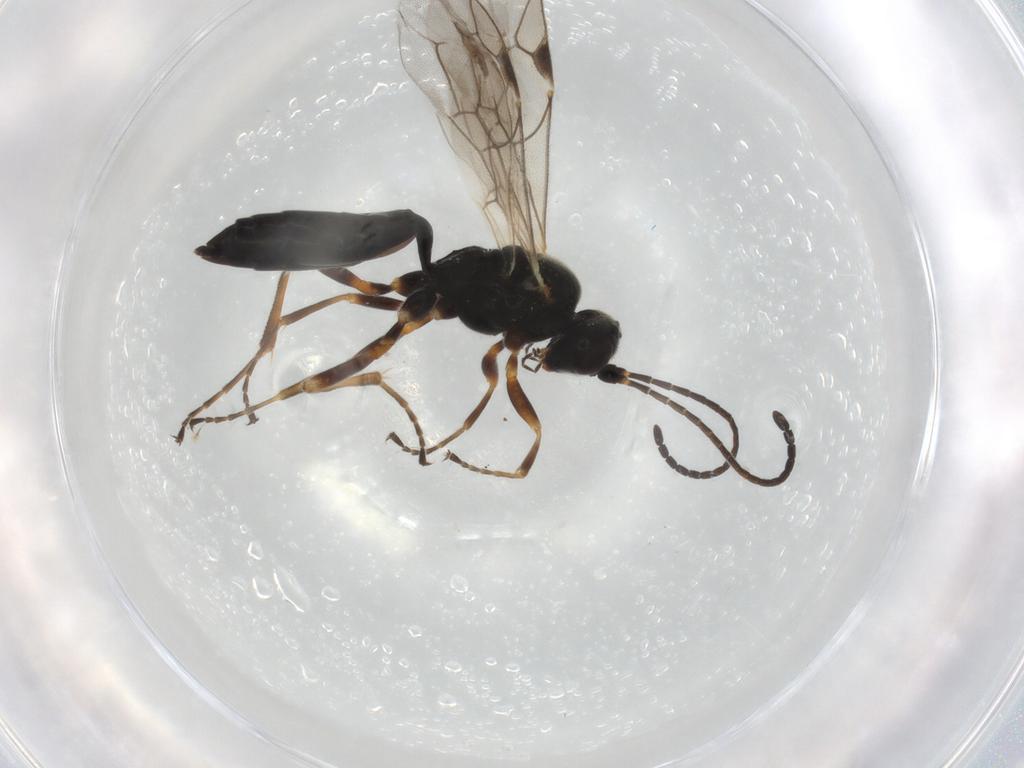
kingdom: Animalia
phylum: Arthropoda
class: Insecta
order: Hymenoptera
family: Ichneumonidae
